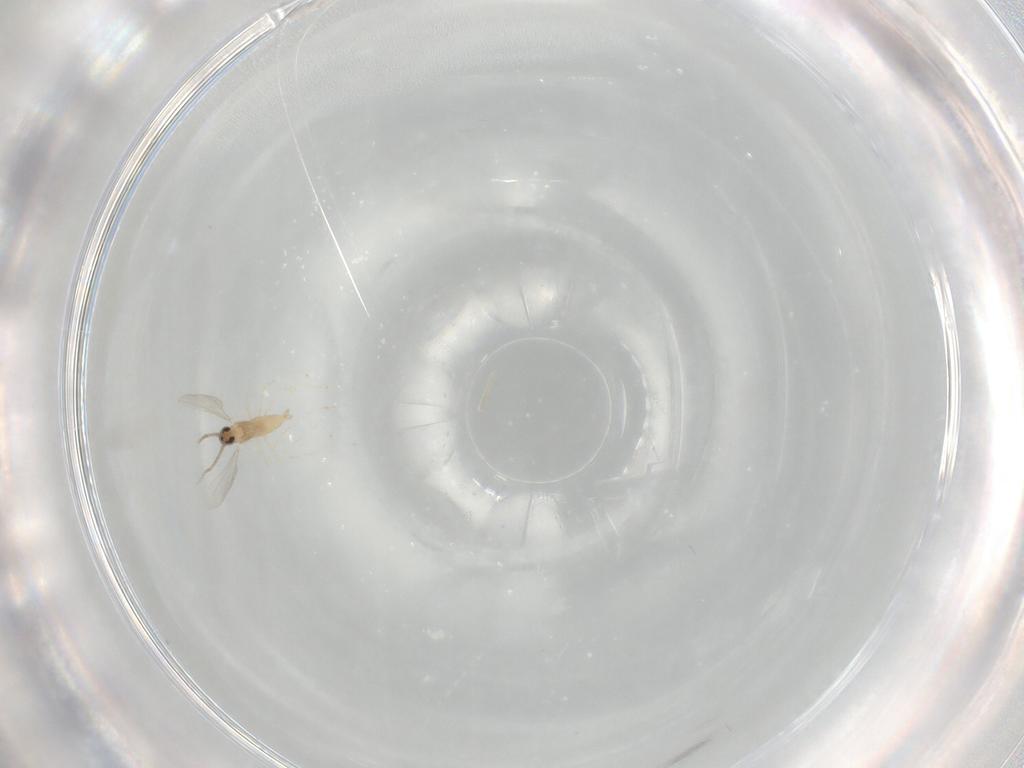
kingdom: Animalia
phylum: Arthropoda
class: Insecta
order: Diptera
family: Cecidomyiidae
